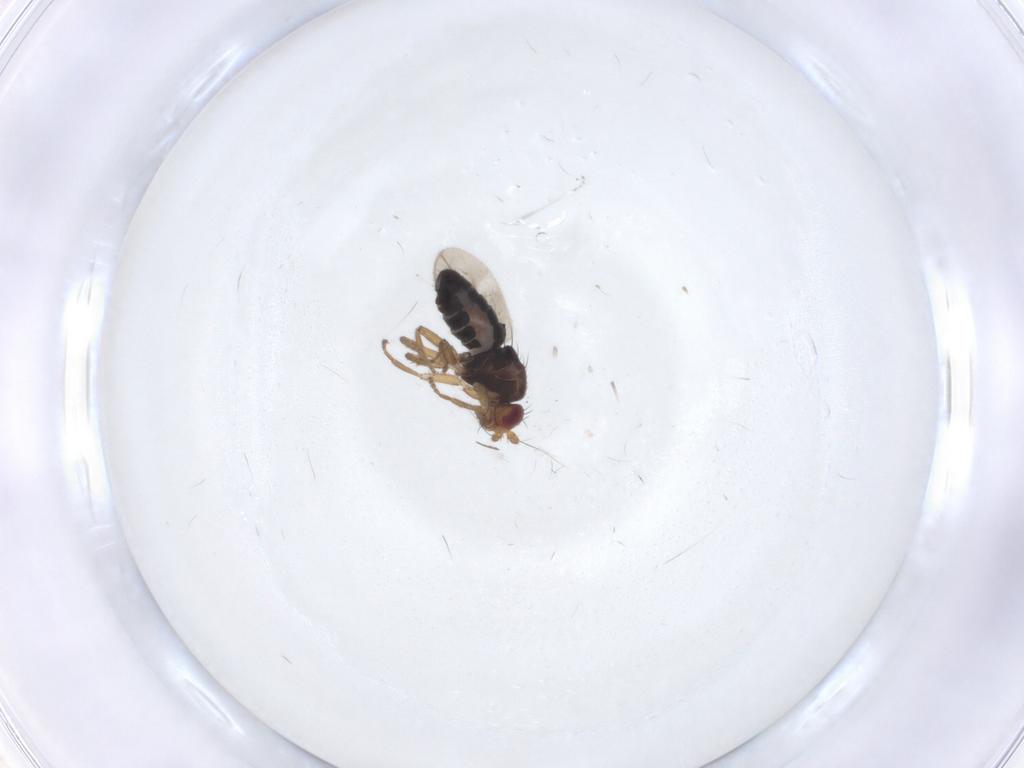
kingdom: Animalia
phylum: Arthropoda
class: Insecta
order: Diptera
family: Sphaeroceridae
